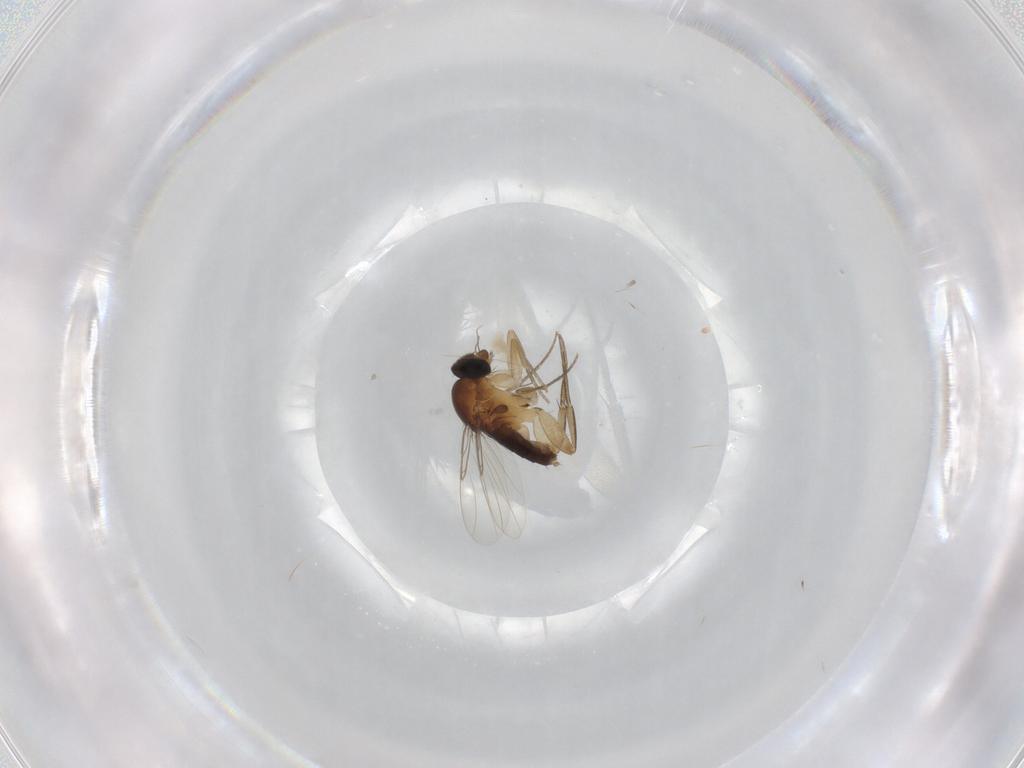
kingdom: Animalia
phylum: Arthropoda
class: Insecta
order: Diptera
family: Phoridae
